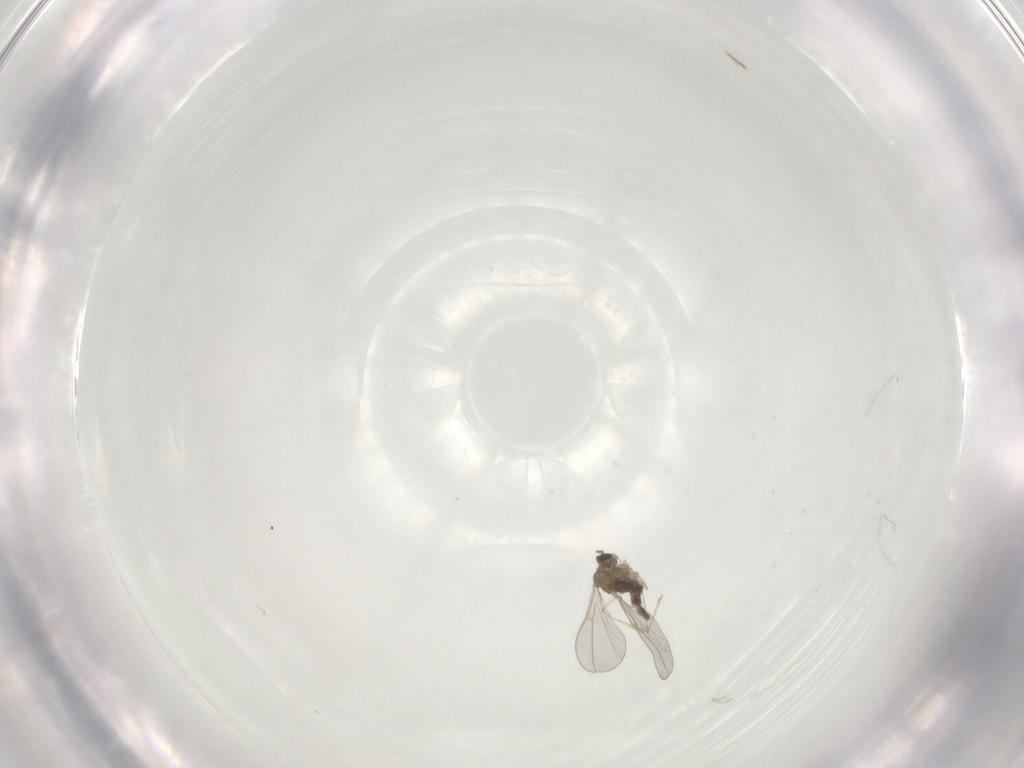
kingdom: Animalia
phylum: Arthropoda
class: Insecta
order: Diptera
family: Cecidomyiidae
